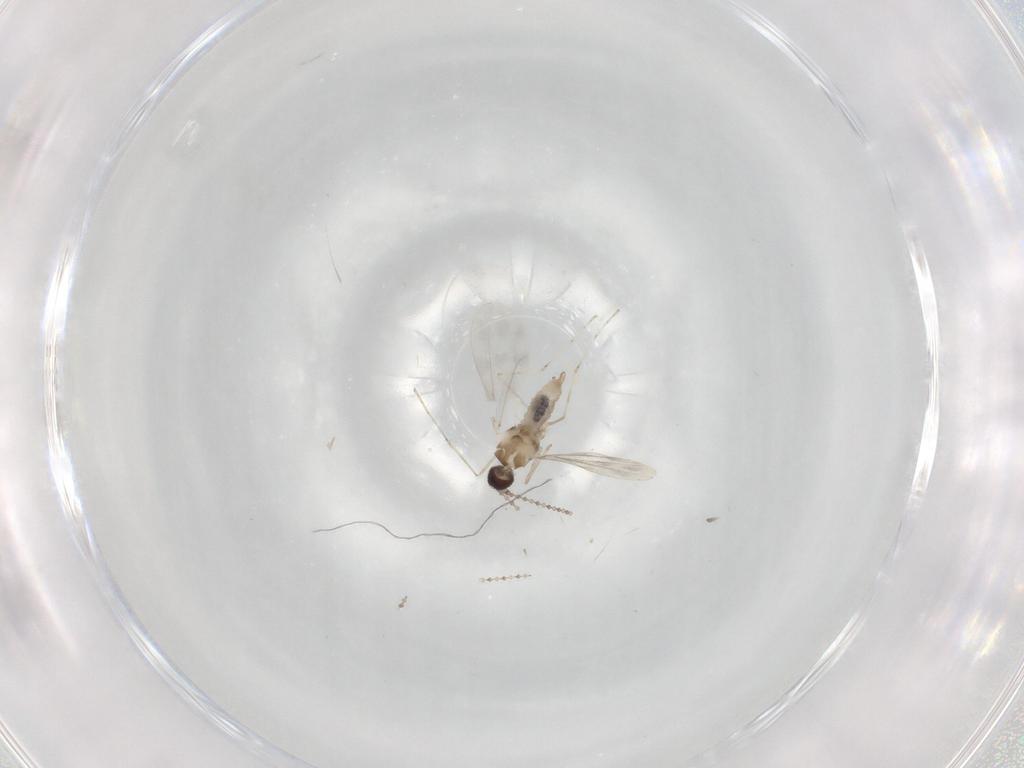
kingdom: Animalia
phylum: Arthropoda
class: Insecta
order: Diptera
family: Cecidomyiidae
